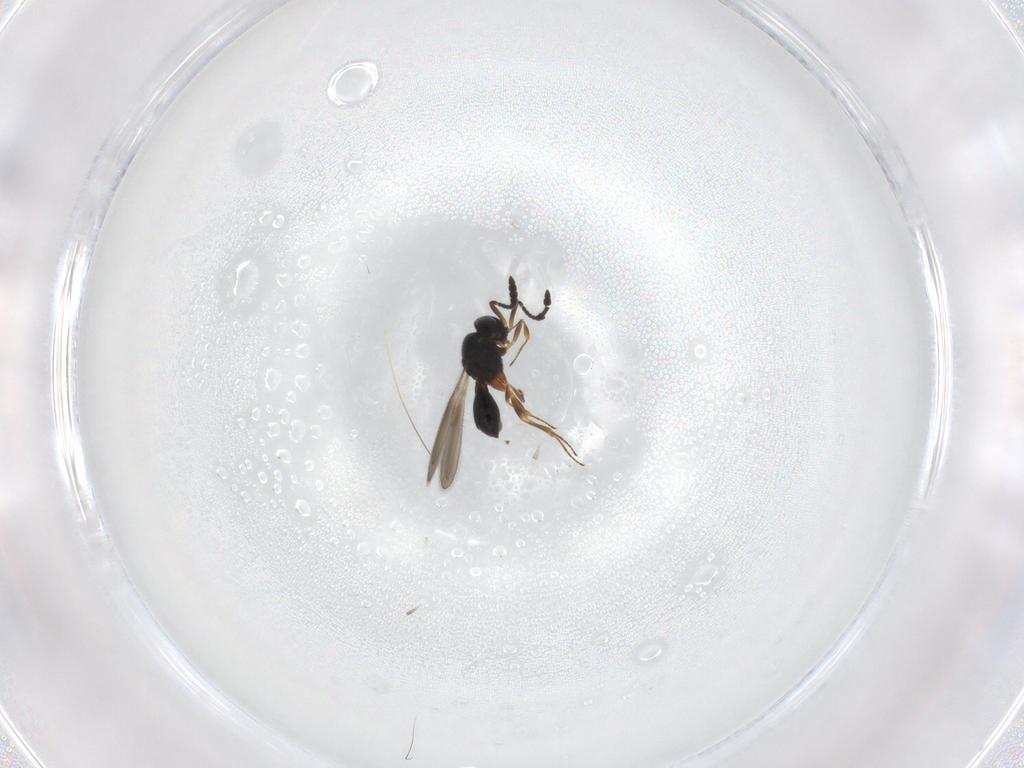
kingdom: Animalia
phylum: Arthropoda
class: Insecta
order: Hymenoptera
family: Scelionidae
